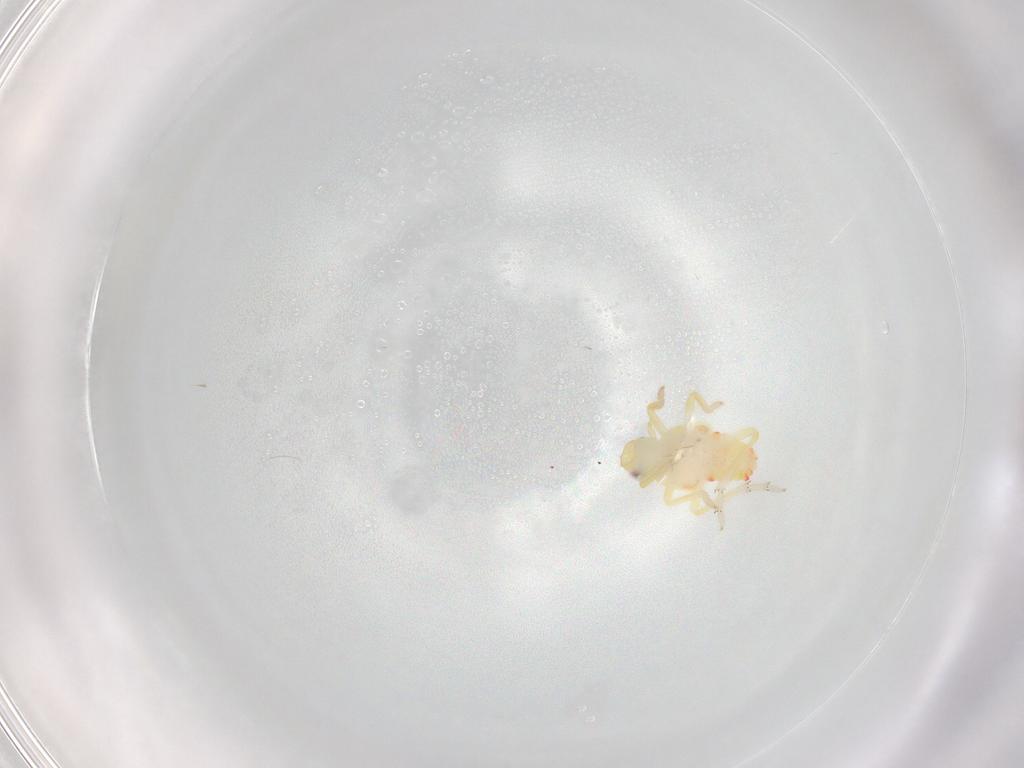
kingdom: Animalia
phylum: Arthropoda
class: Insecta
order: Hemiptera
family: Tropiduchidae
